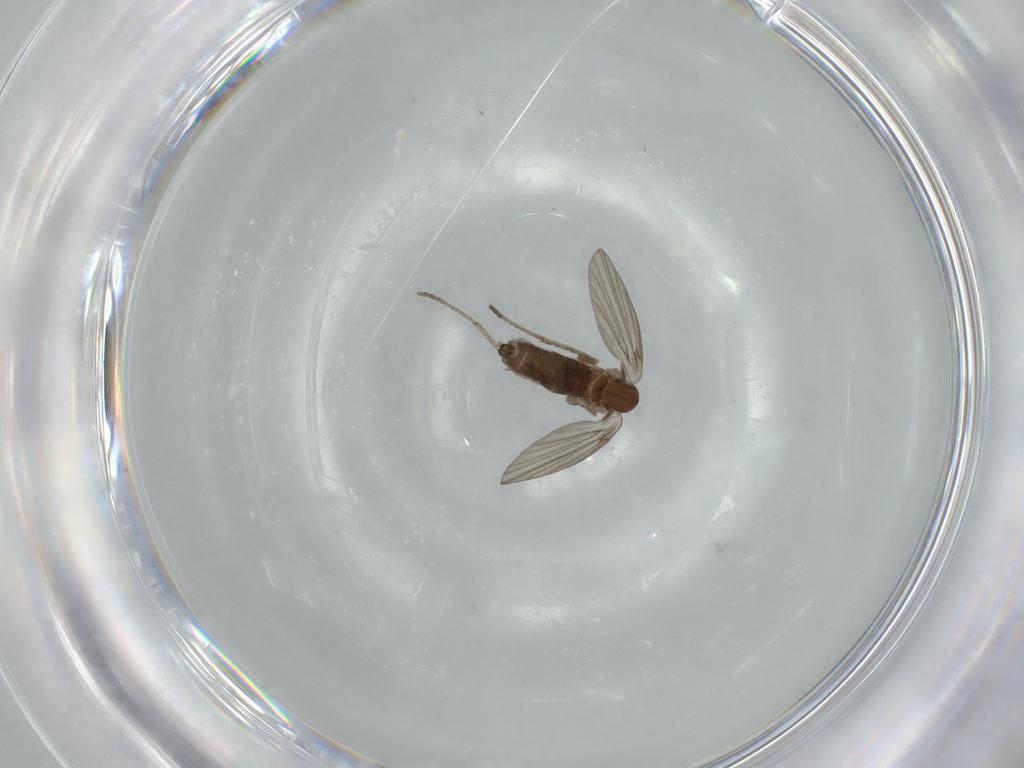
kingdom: Animalia
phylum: Arthropoda
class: Insecta
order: Diptera
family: Psychodidae
